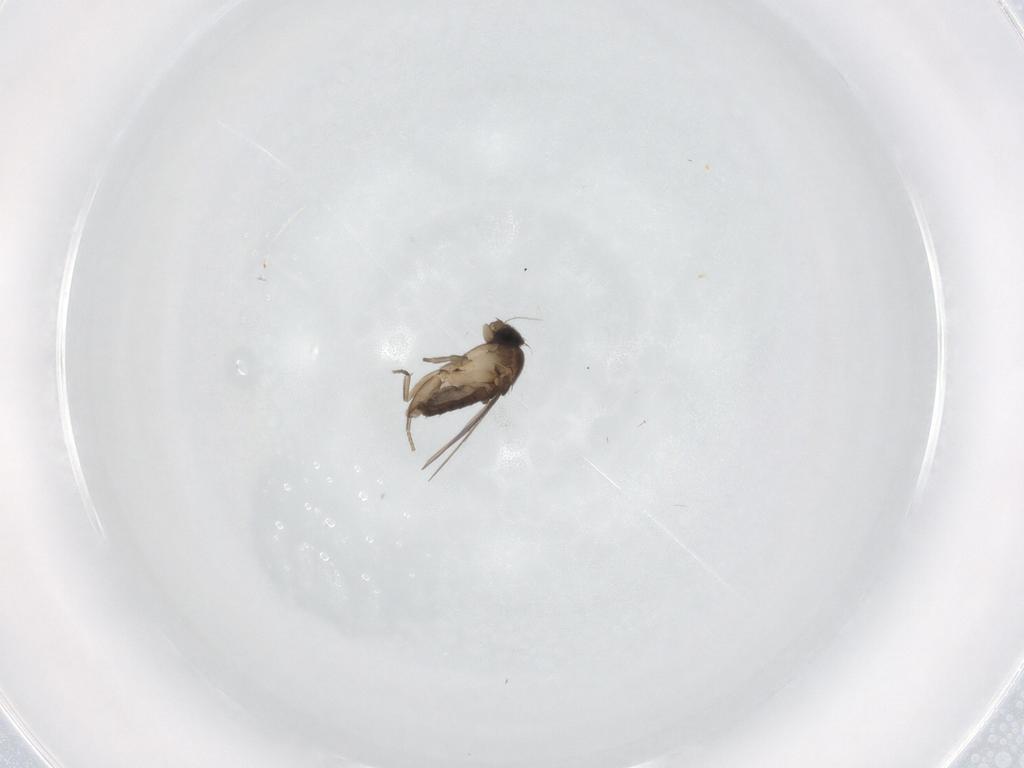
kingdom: Animalia
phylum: Arthropoda
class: Insecta
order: Diptera
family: Phoridae
